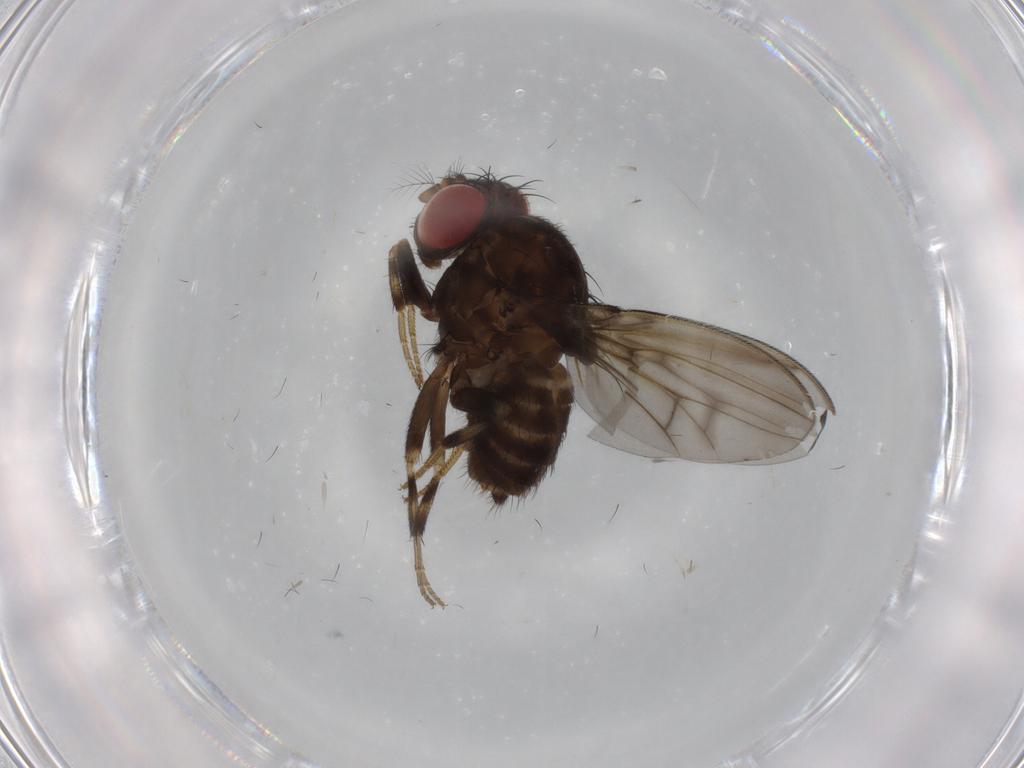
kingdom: Animalia
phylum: Arthropoda
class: Insecta
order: Diptera
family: Drosophilidae
